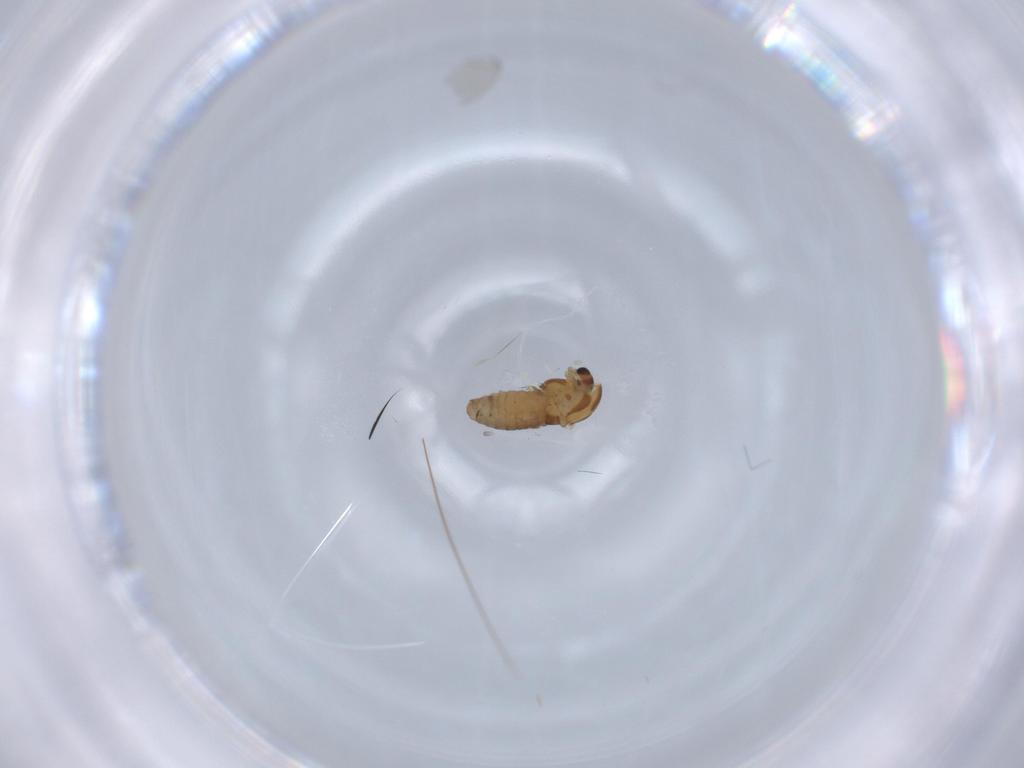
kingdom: Animalia
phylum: Arthropoda
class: Insecta
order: Diptera
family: Chironomidae
